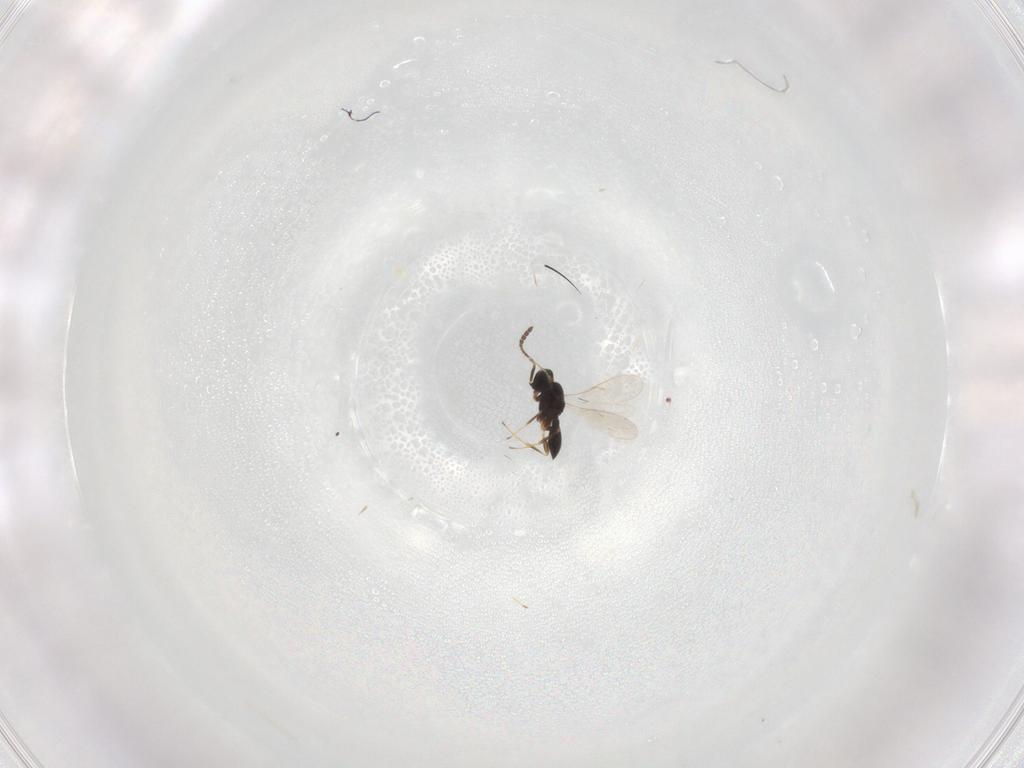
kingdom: Animalia
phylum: Arthropoda
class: Insecta
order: Hymenoptera
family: Scelionidae
